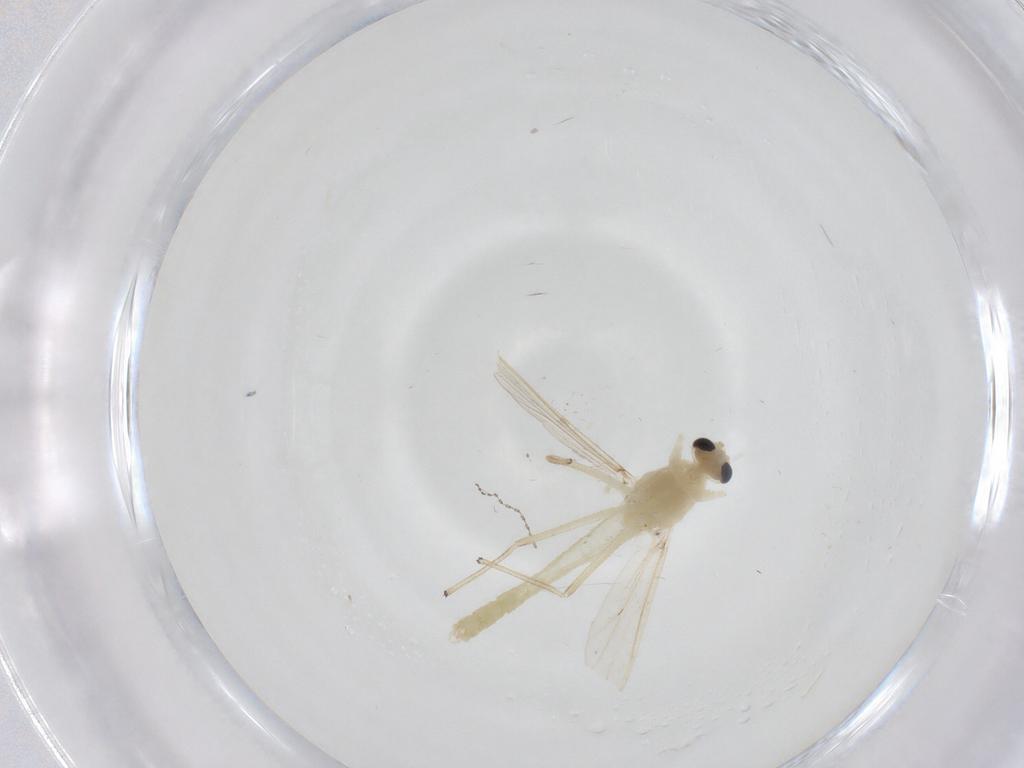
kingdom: Animalia
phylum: Arthropoda
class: Insecta
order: Diptera
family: Chironomidae
